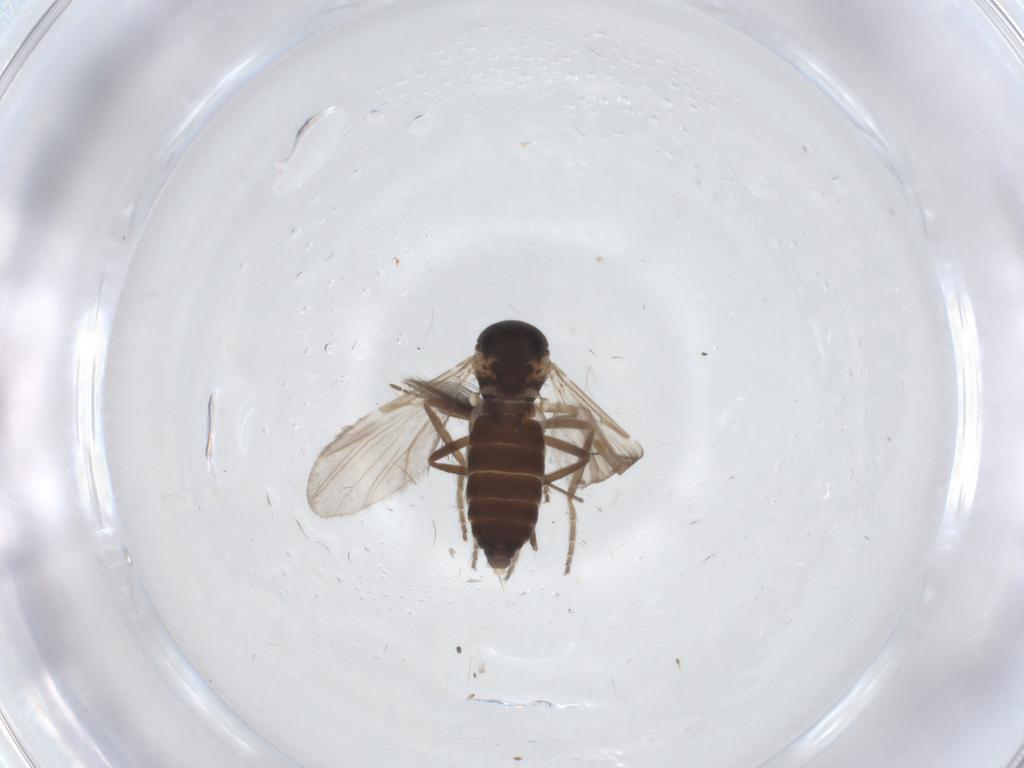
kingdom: Animalia
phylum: Arthropoda
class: Insecta
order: Diptera
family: Ceratopogonidae
